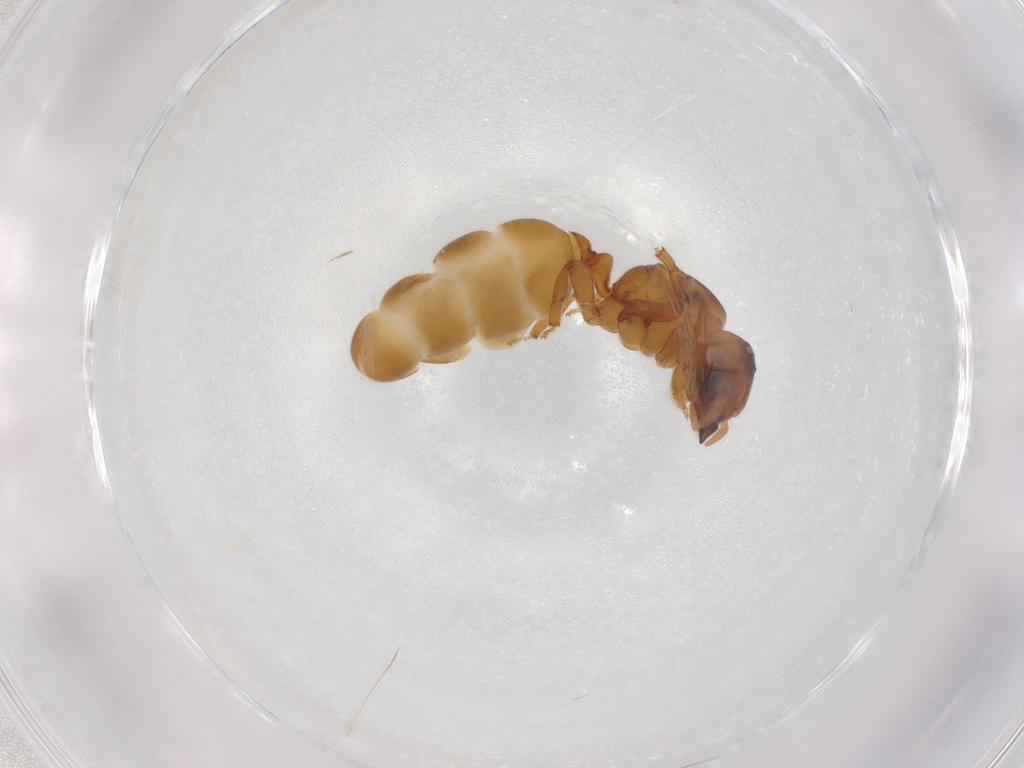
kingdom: Animalia
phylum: Arthropoda
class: Insecta
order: Hymenoptera
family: Formicidae
